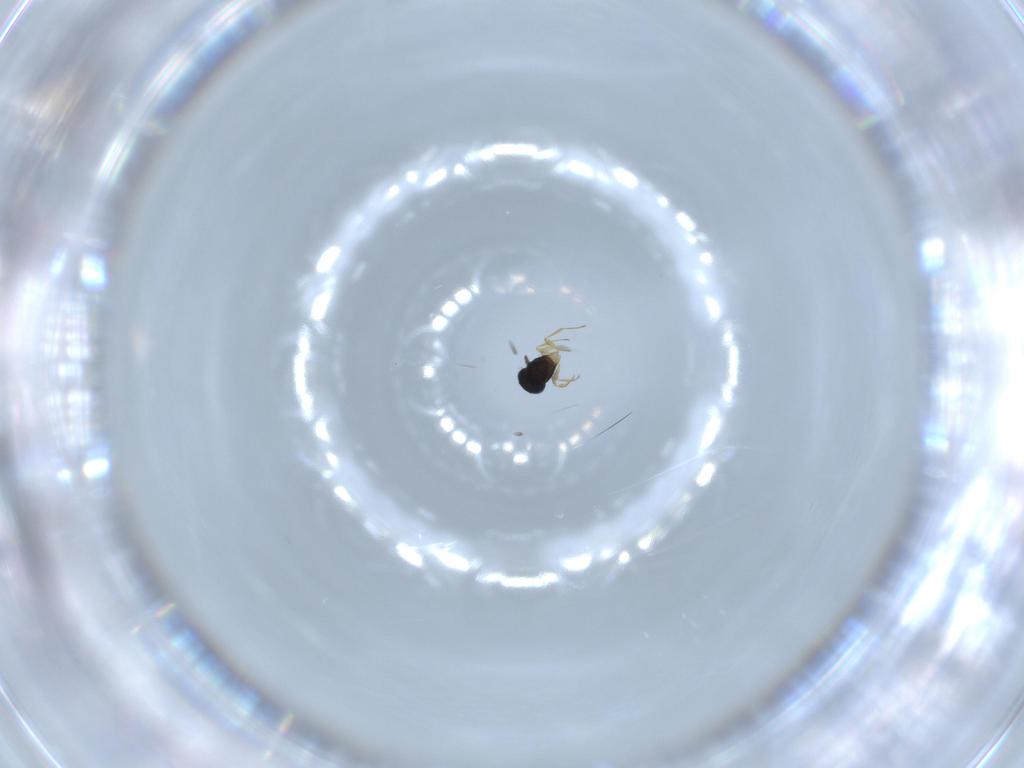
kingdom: Animalia
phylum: Arthropoda
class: Insecta
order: Hymenoptera
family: Scelionidae
